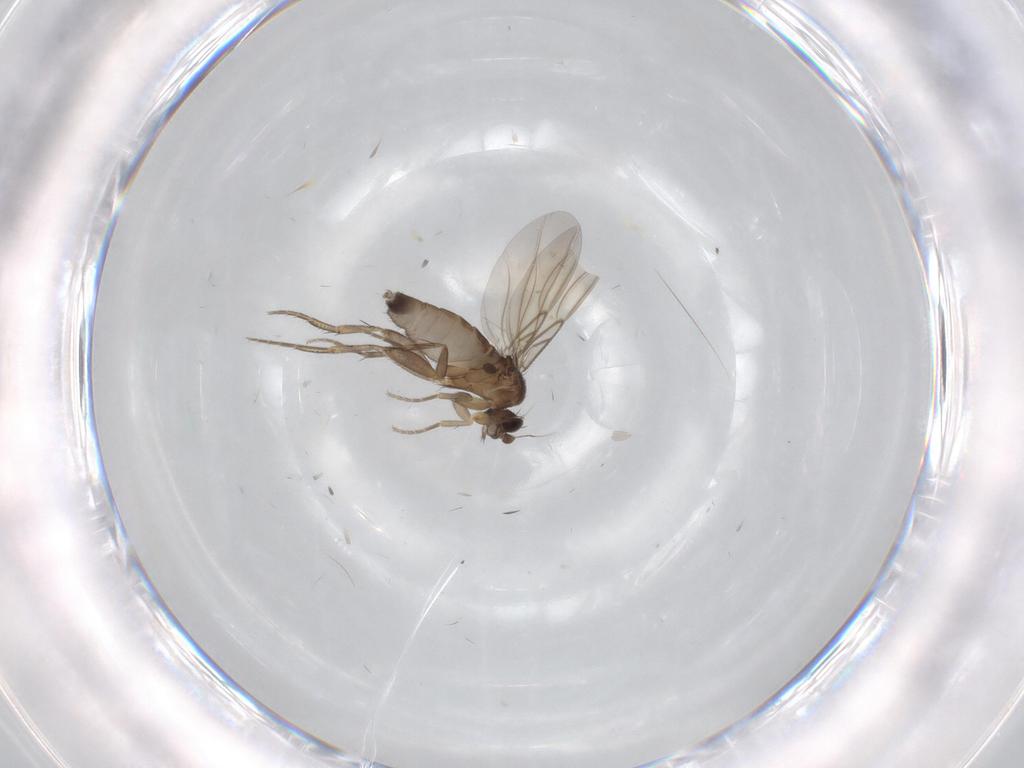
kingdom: Animalia
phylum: Arthropoda
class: Insecta
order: Diptera
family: Phoridae
